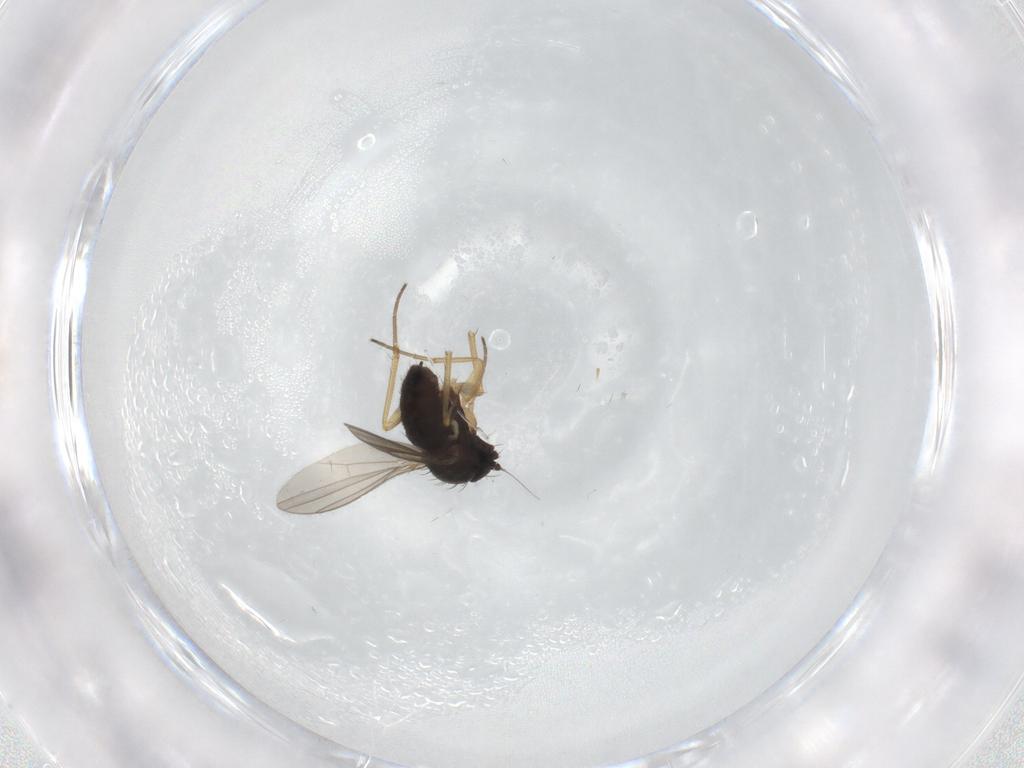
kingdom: Animalia
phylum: Arthropoda
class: Insecta
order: Diptera
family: Dolichopodidae
